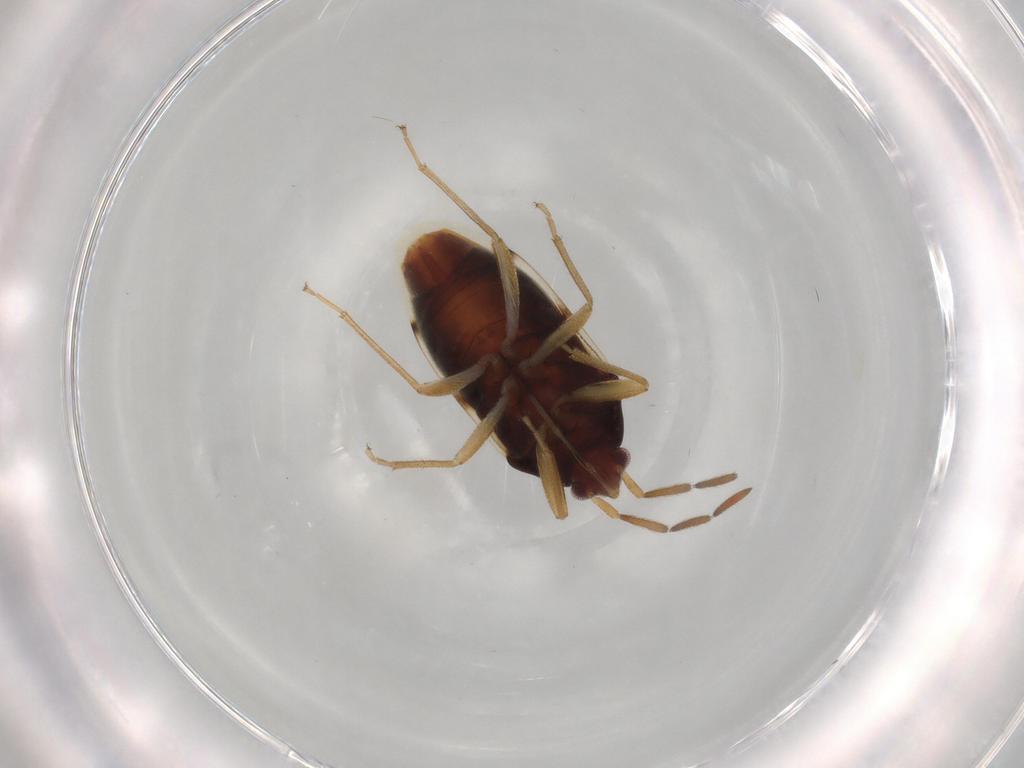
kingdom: Animalia
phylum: Arthropoda
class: Insecta
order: Hemiptera
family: Rhyparochromidae
